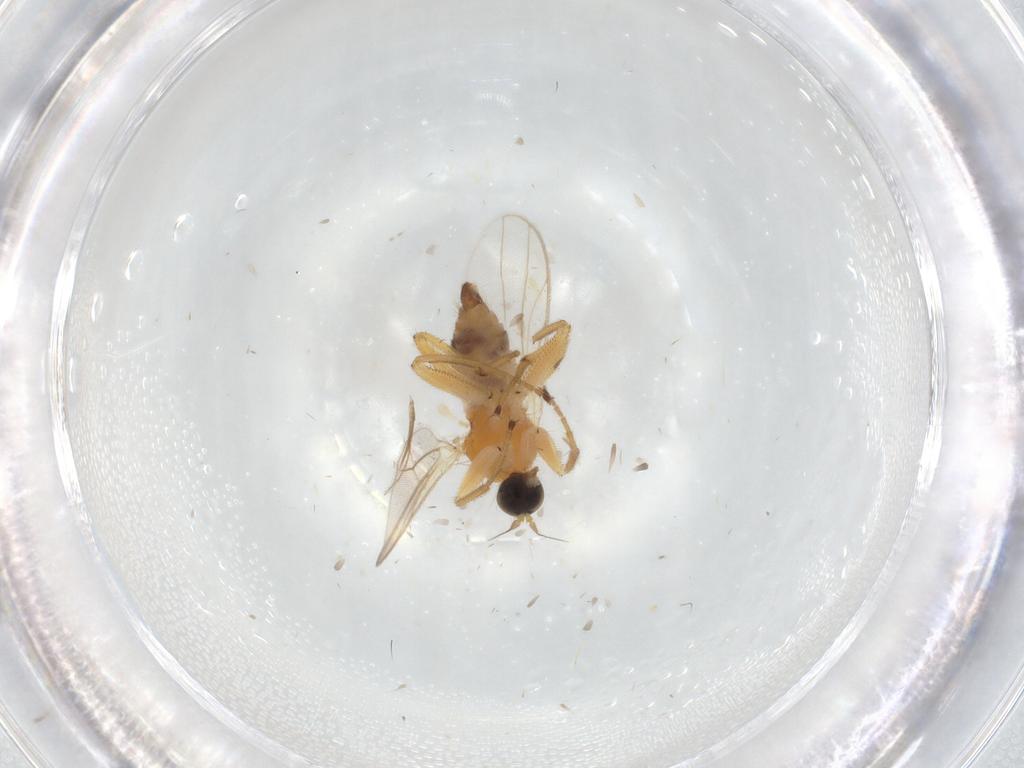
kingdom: Animalia
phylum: Arthropoda
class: Insecta
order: Diptera
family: Hybotidae
